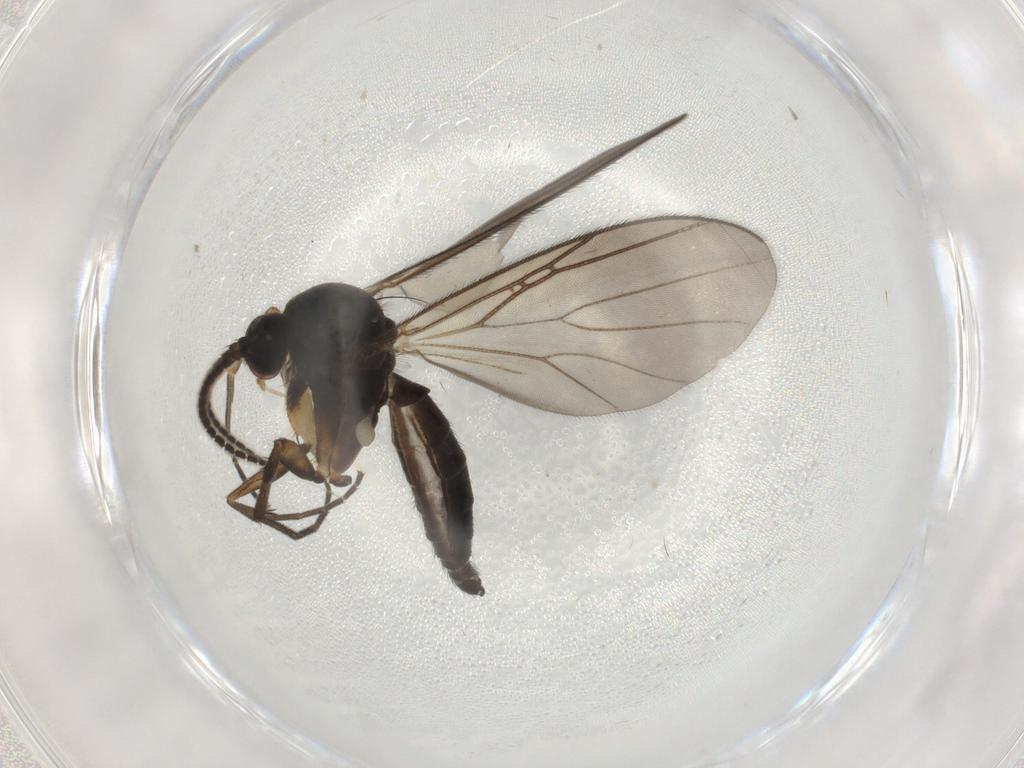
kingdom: Animalia
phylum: Arthropoda
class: Insecta
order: Diptera
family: Mycetophilidae
